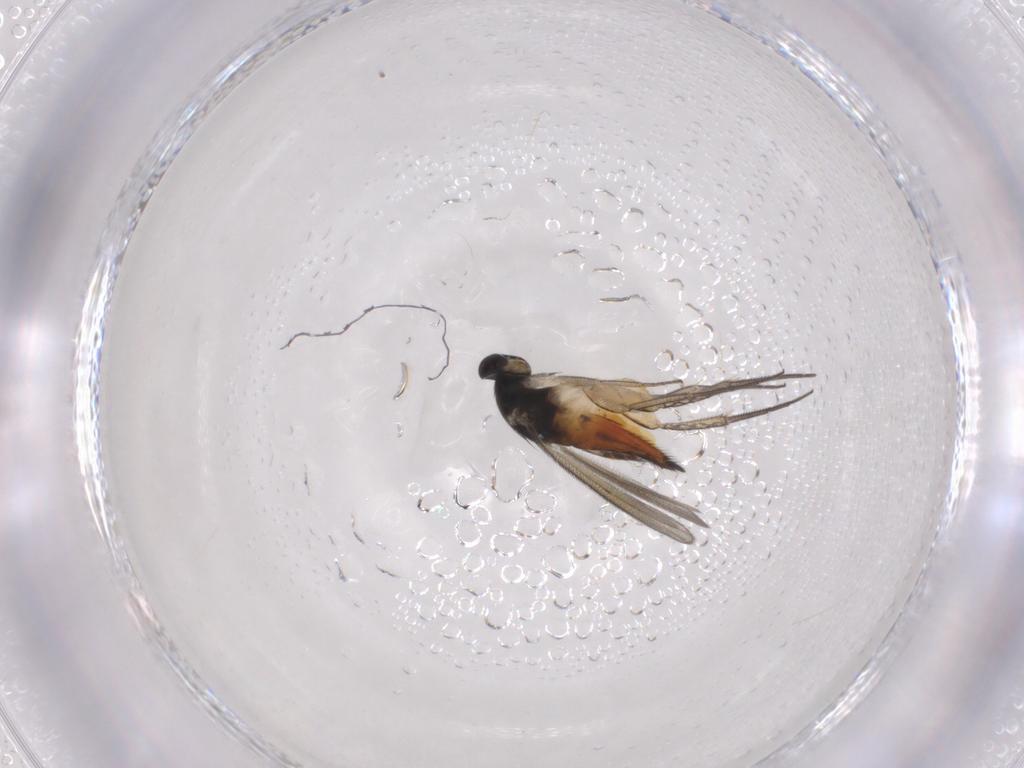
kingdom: Animalia
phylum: Arthropoda
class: Insecta
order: Hymenoptera
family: Eulophidae
